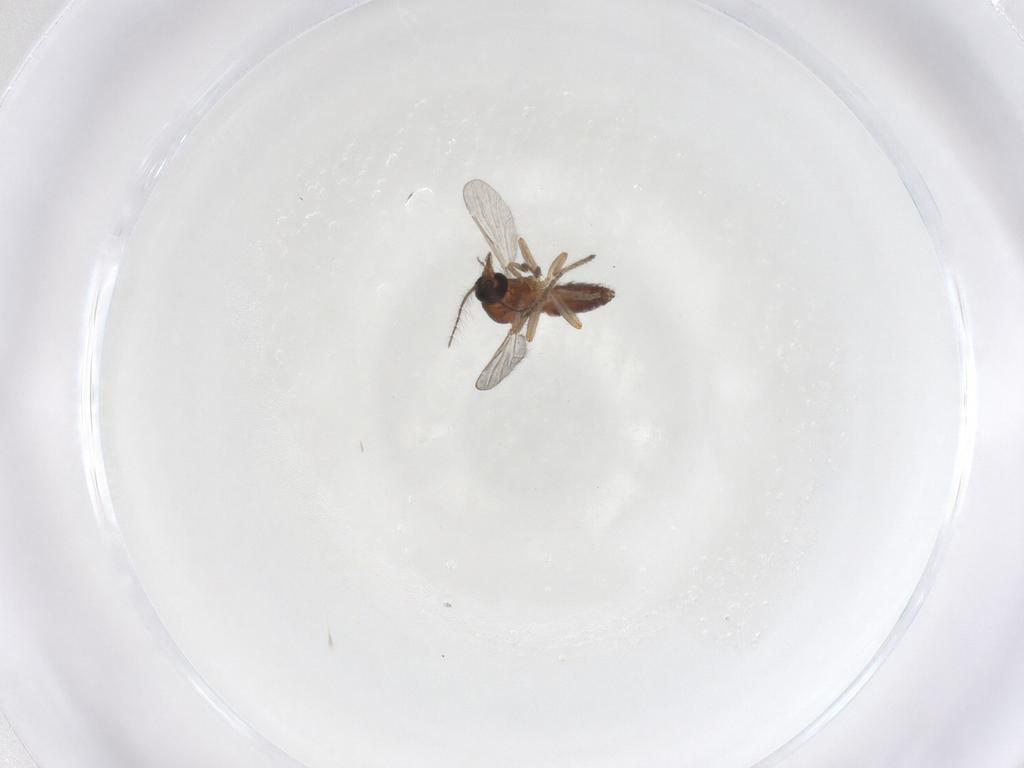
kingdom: Animalia
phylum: Arthropoda
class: Insecta
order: Diptera
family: Ceratopogonidae
